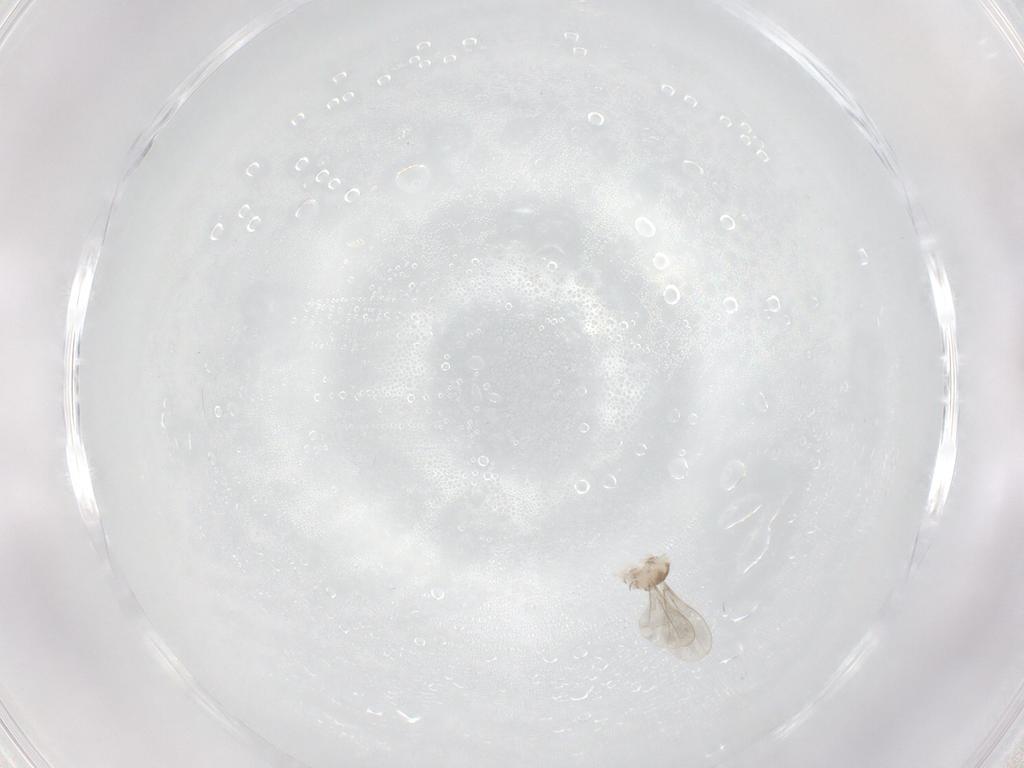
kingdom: Animalia
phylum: Arthropoda
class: Insecta
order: Diptera
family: Cecidomyiidae
